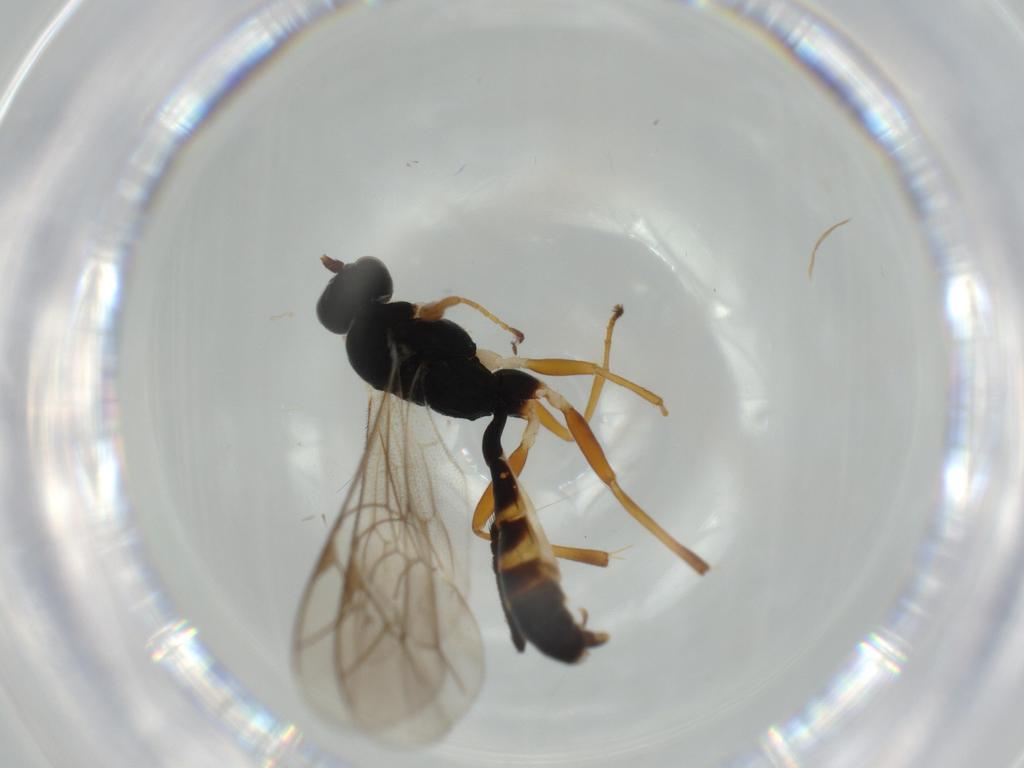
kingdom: Animalia
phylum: Arthropoda
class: Insecta
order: Hymenoptera
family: Ichneumonidae
